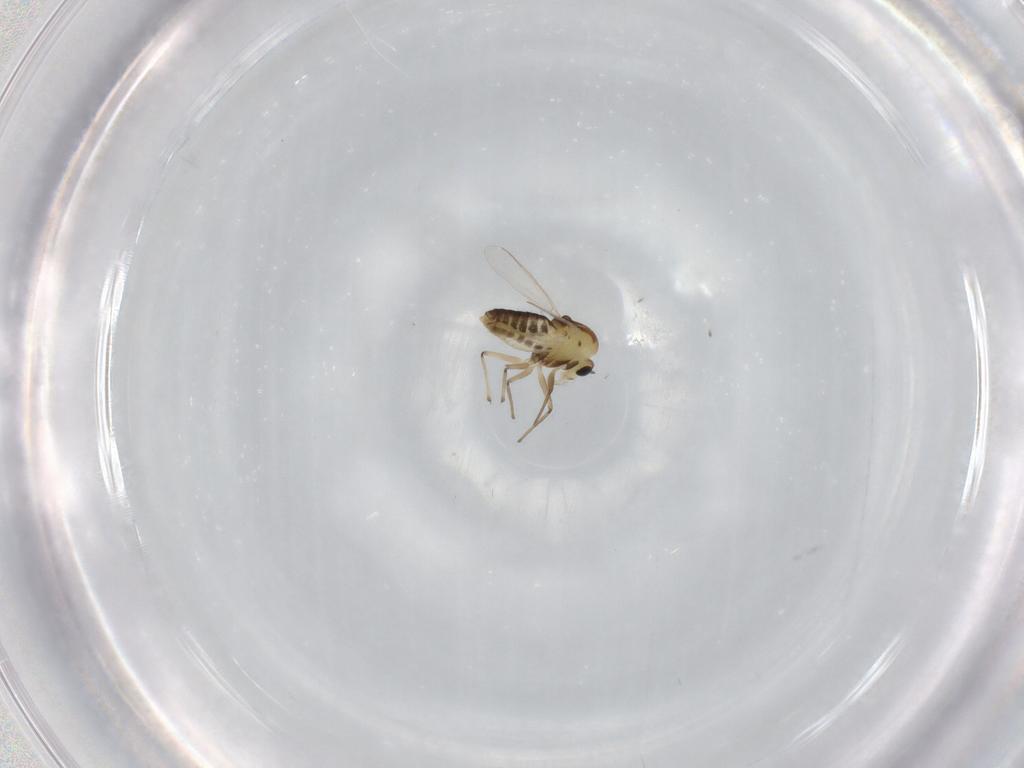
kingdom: Animalia
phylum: Arthropoda
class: Insecta
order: Diptera
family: Chironomidae
